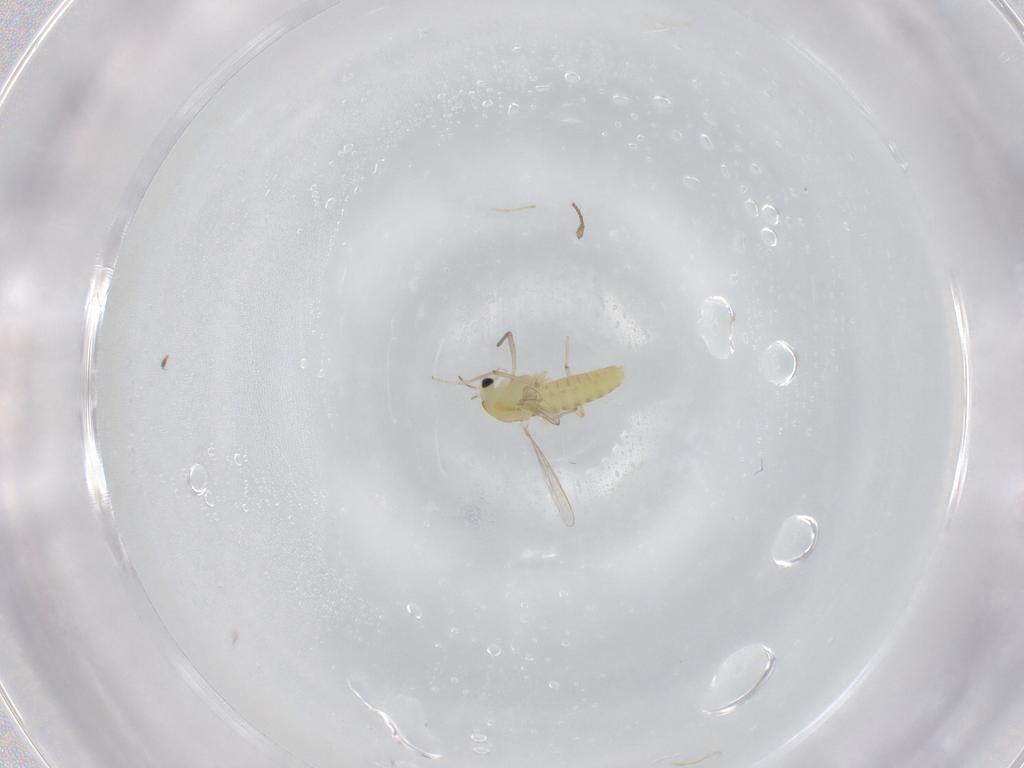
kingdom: Animalia
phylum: Arthropoda
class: Insecta
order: Diptera
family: Chironomidae
